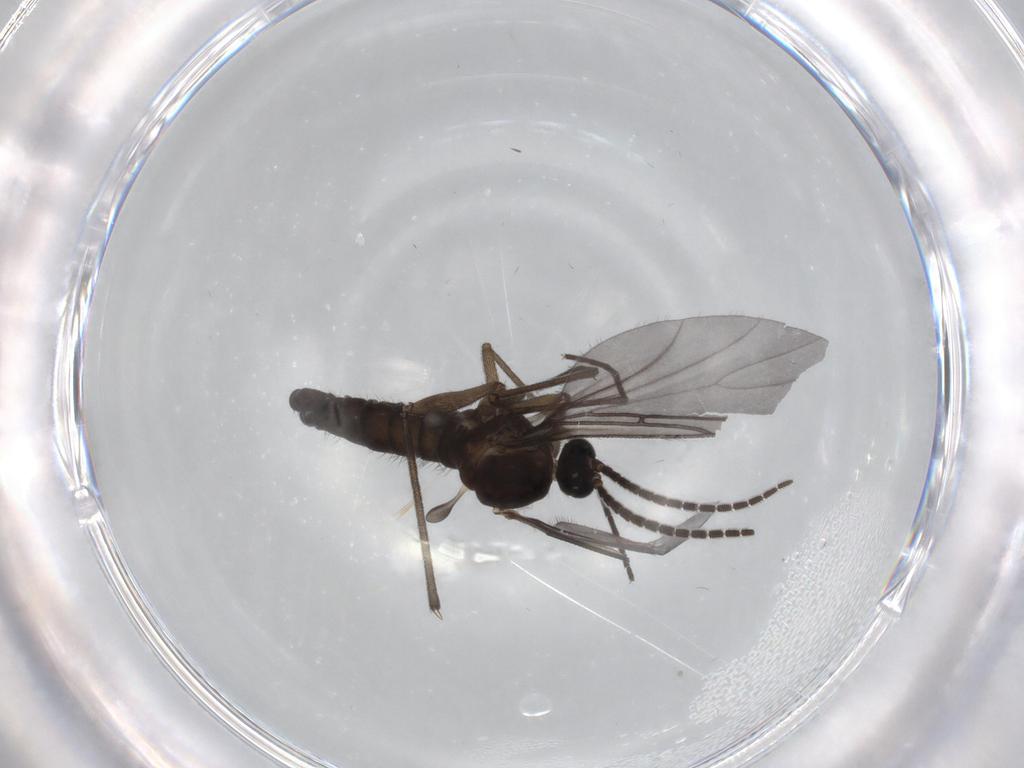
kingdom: Animalia
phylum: Arthropoda
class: Insecta
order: Diptera
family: Sciaridae
